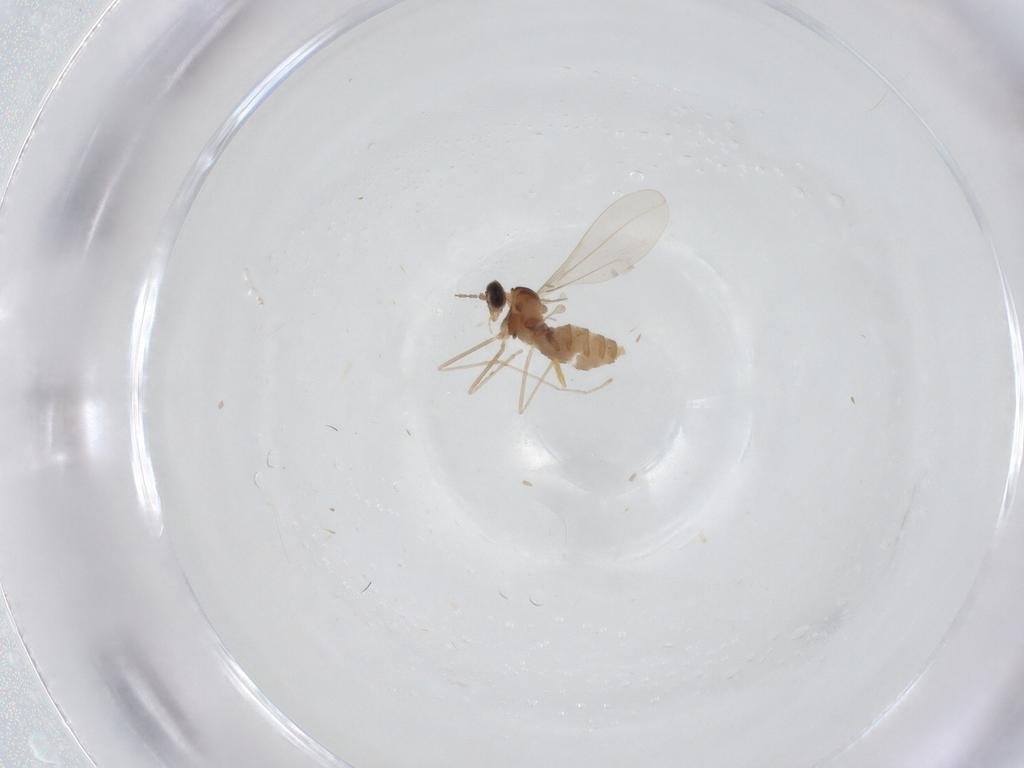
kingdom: Animalia
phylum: Arthropoda
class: Insecta
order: Diptera
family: Cecidomyiidae
